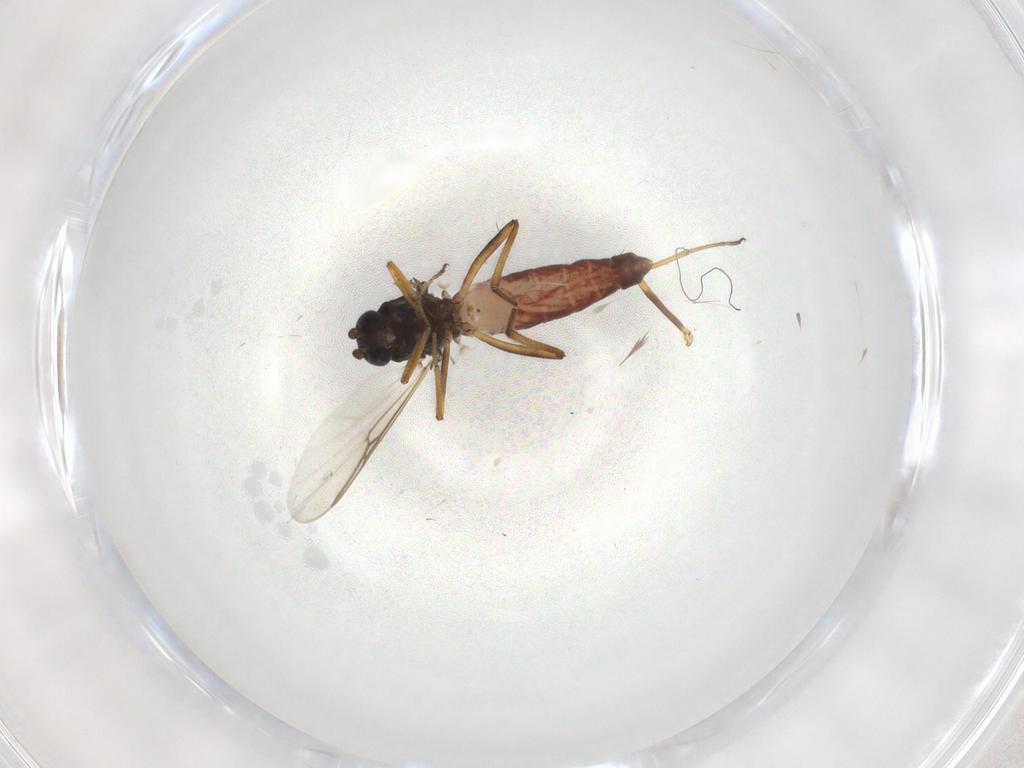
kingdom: Animalia
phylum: Arthropoda
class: Insecta
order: Diptera
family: Ceratopogonidae
